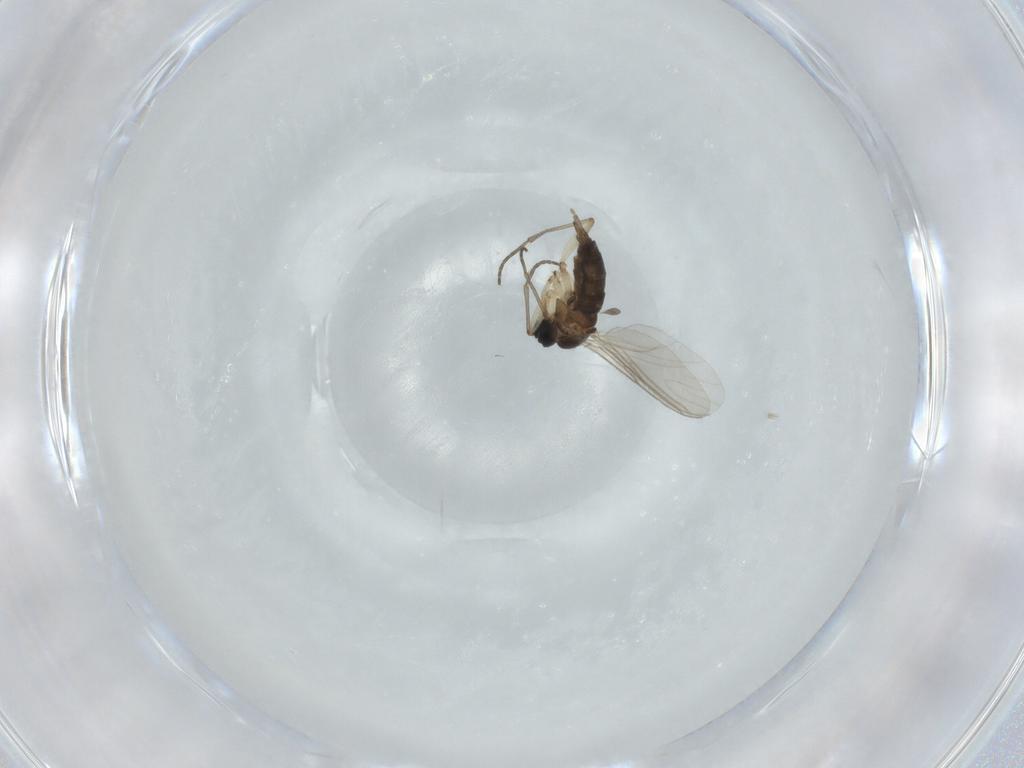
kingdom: Animalia
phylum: Arthropoda
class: Insecta
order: Diptera
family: Sciaridae
